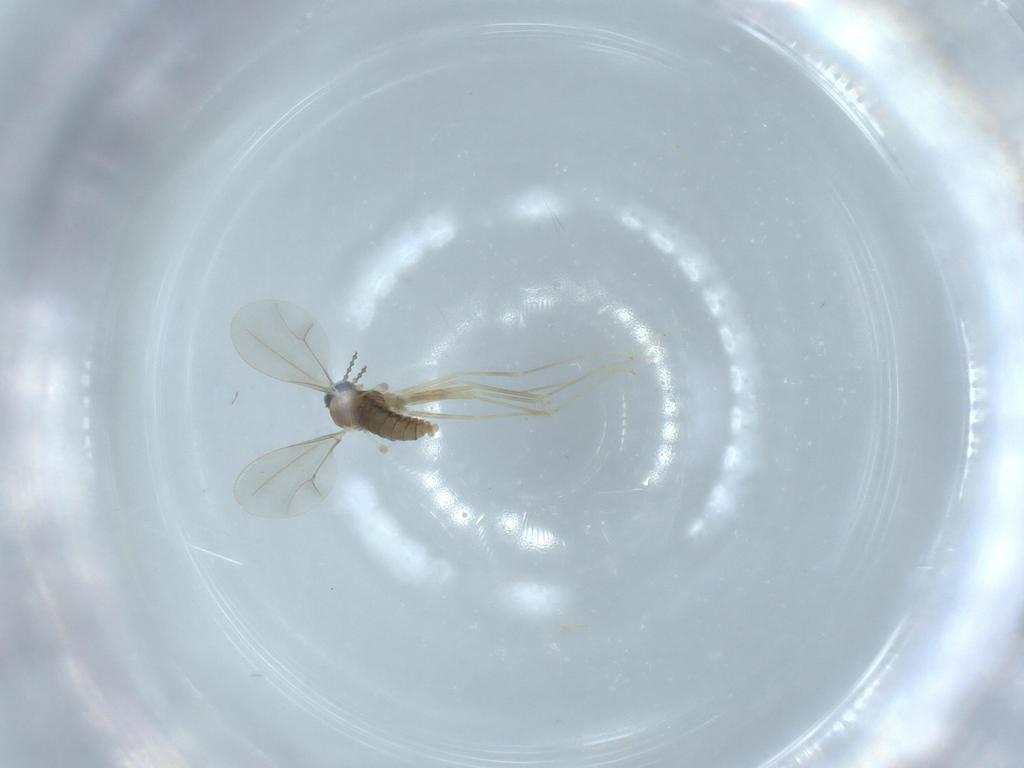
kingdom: Animalia
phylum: Arthropoda
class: Insecta
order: Diptera
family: Cecidomyiidae
